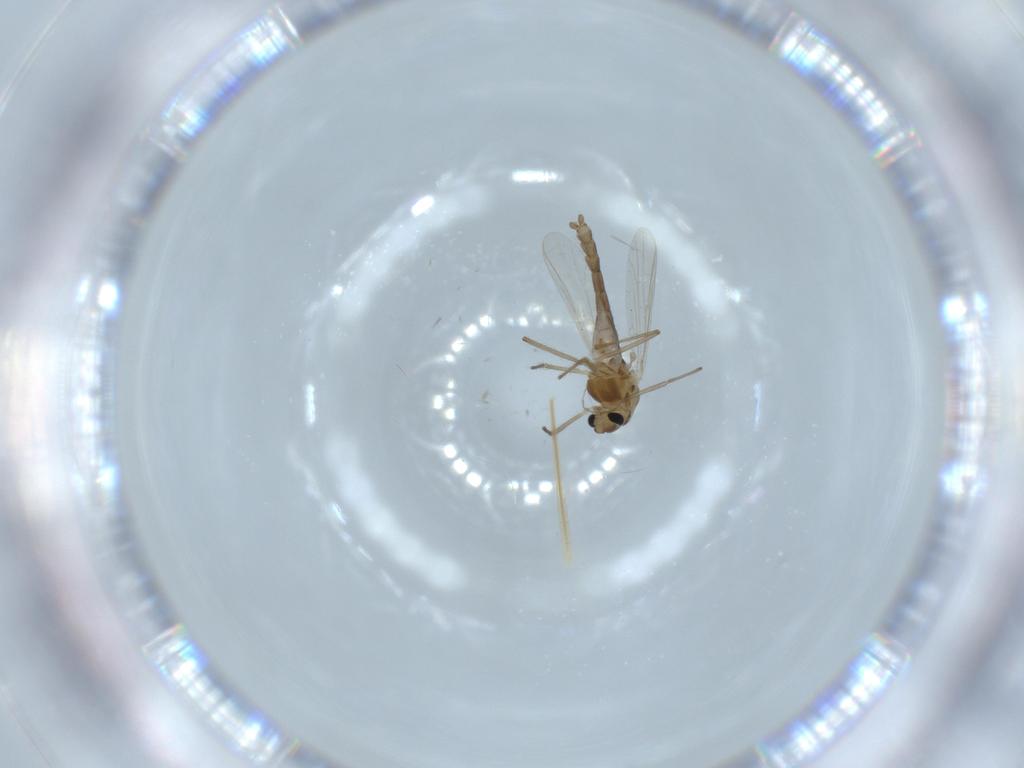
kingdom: Animalia
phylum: Arthropoda
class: Insecta
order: Diptera
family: Chironomidae
